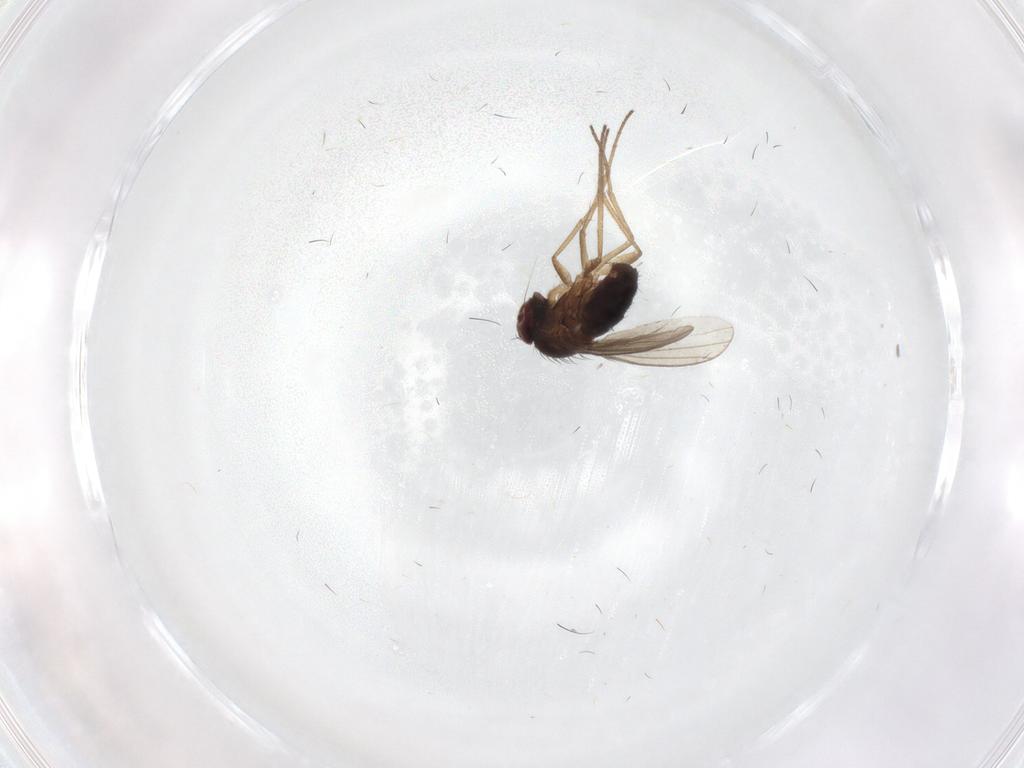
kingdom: Animalia
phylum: Arthropoda
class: Insecta
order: Diptera
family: Dolichopodidae
